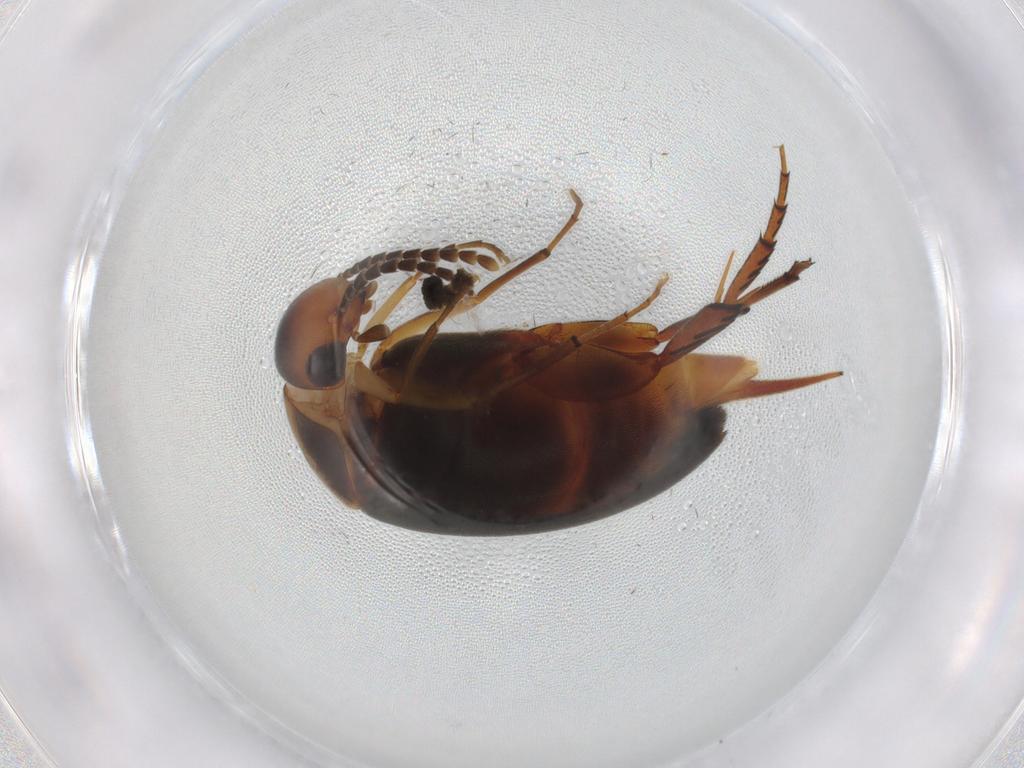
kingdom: Animalia
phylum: Arthropoda
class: Insecta
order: Coleoptera
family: Mordellidae
